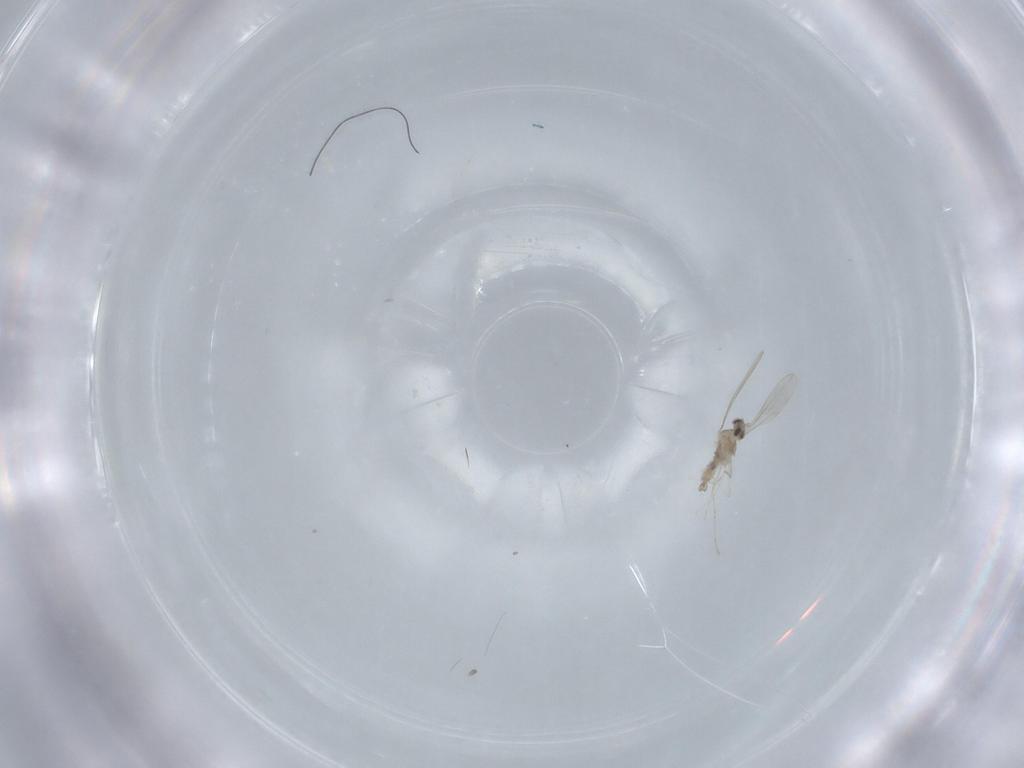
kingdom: Animalia
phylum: Arthropoda
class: Insecta
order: Diptera
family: Cecidomyiidae
